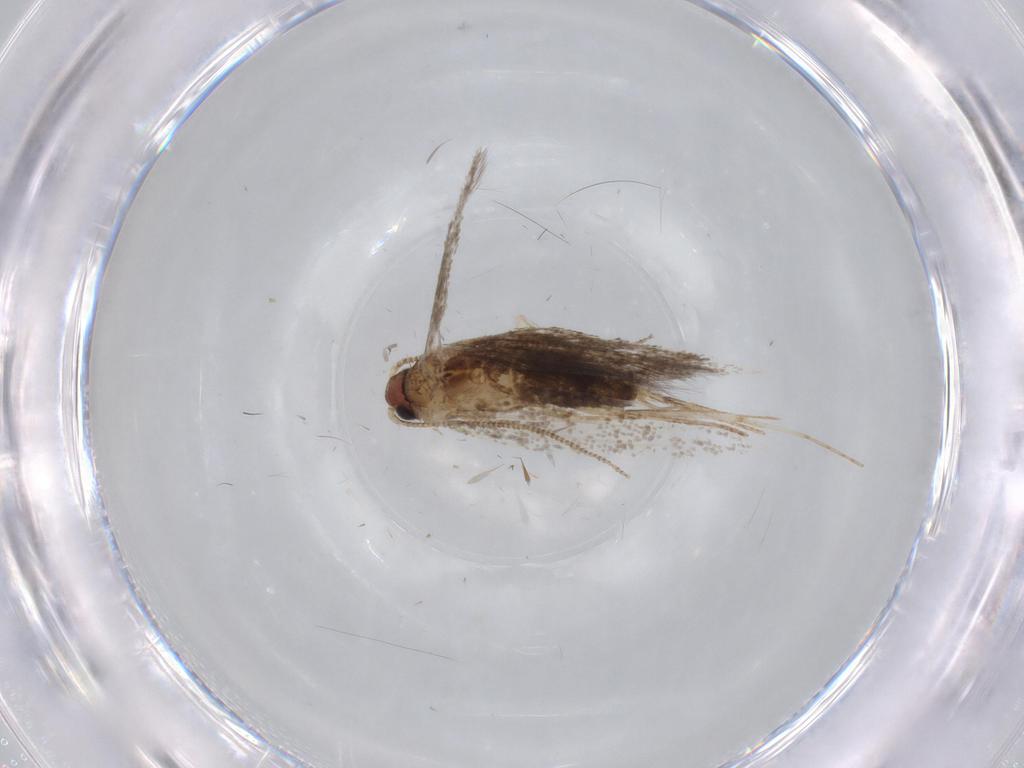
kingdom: Animalia
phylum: Arthropoda
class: Insecta
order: Lepidoptera
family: Tineidae
